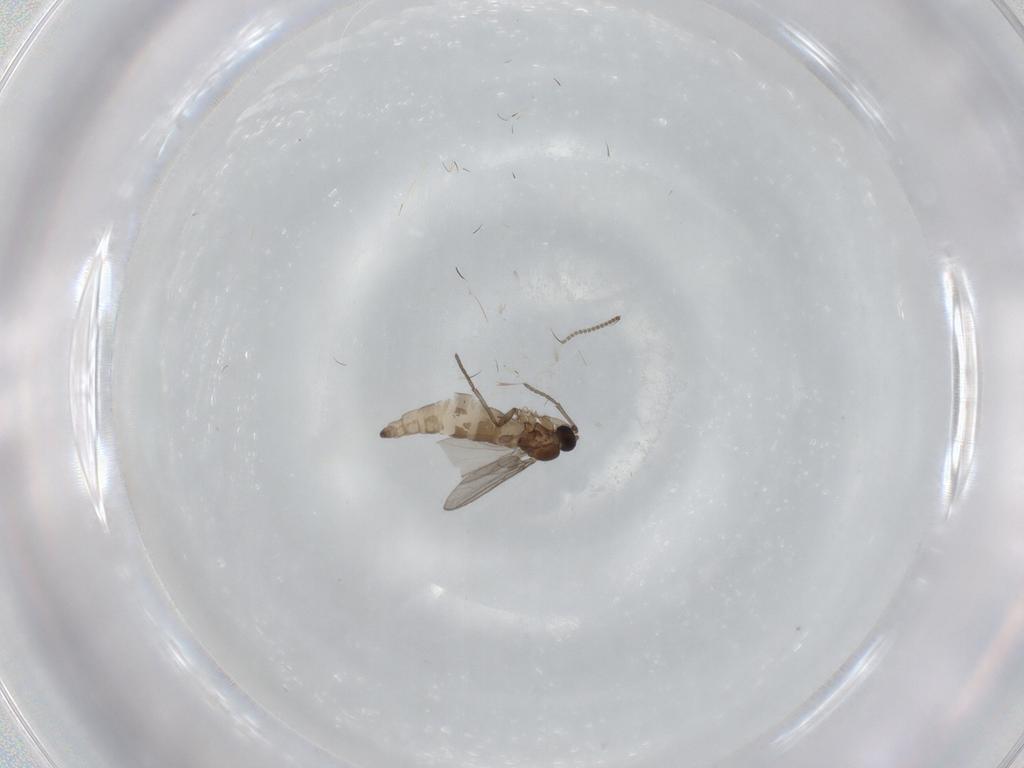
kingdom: Animalia
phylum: Arthropoda
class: Insecta
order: Diptera
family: Sciaridae
